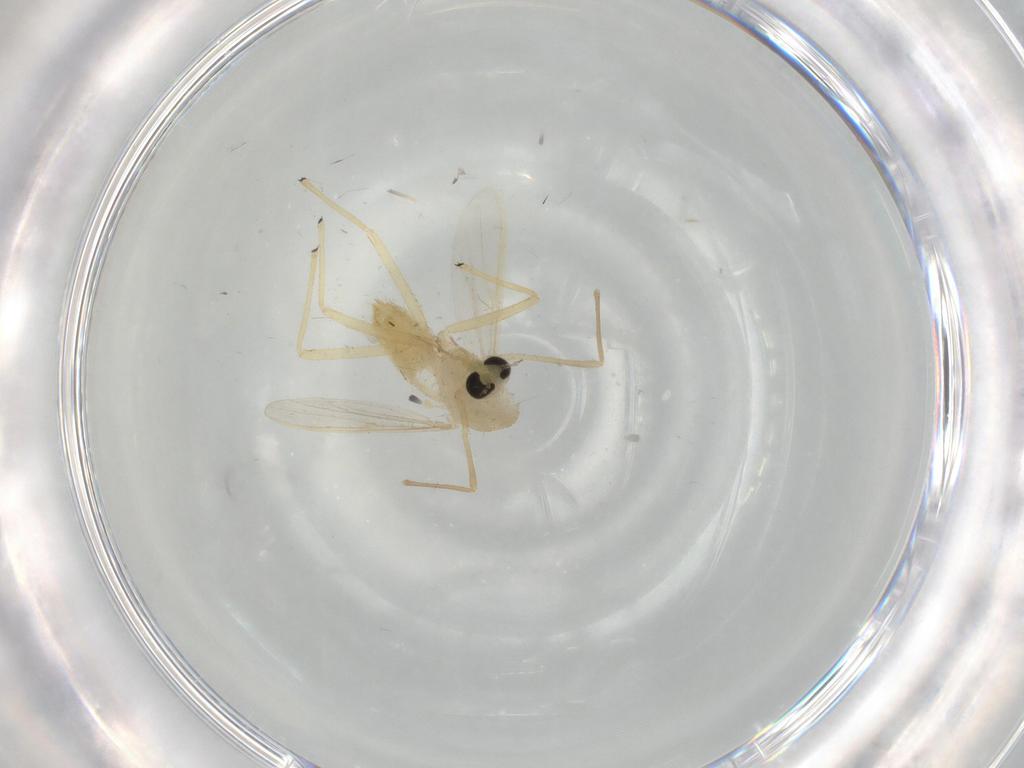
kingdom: Animalia
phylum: Arthropoda
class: Insecta
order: Diptera
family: Chironomidae
